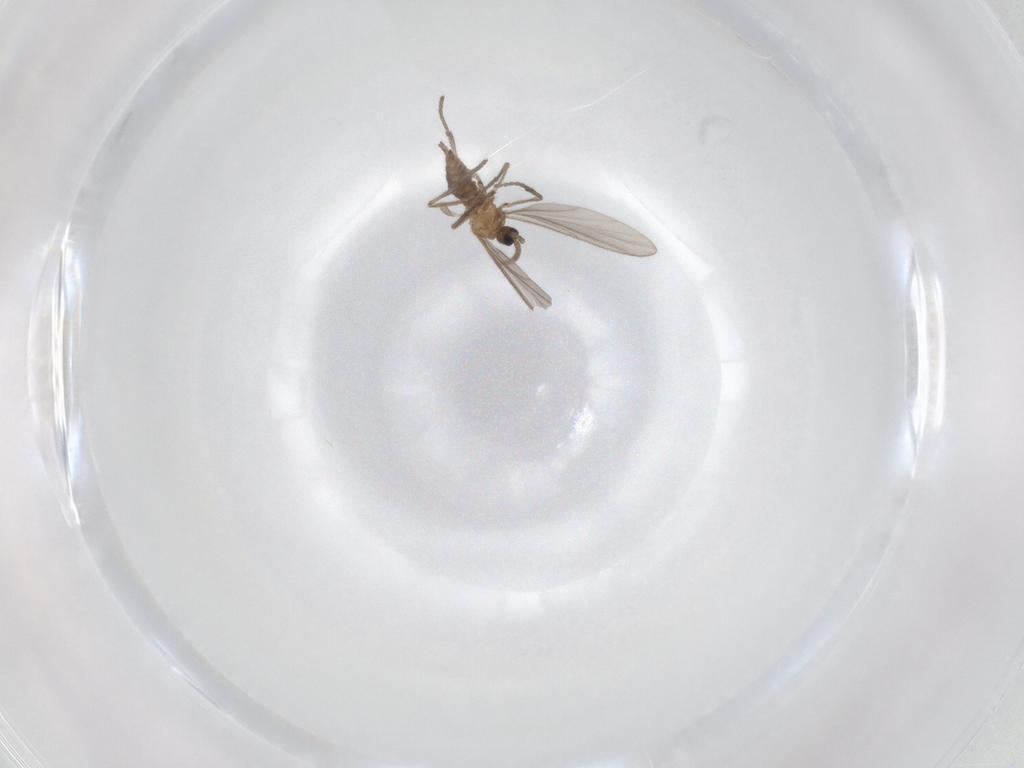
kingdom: Animalia
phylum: Arthropoda
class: Insecta
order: Diptera
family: Sciaridae
